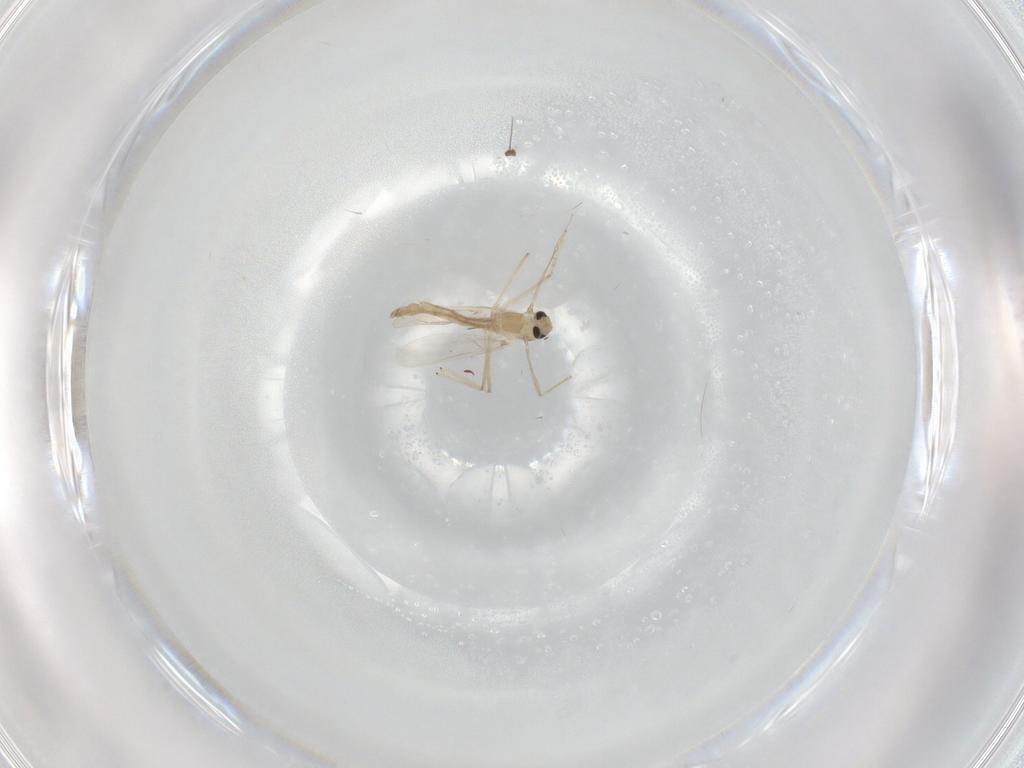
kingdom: Animalia
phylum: Arthropoda
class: Insecta
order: Diptera
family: Chironomidae
